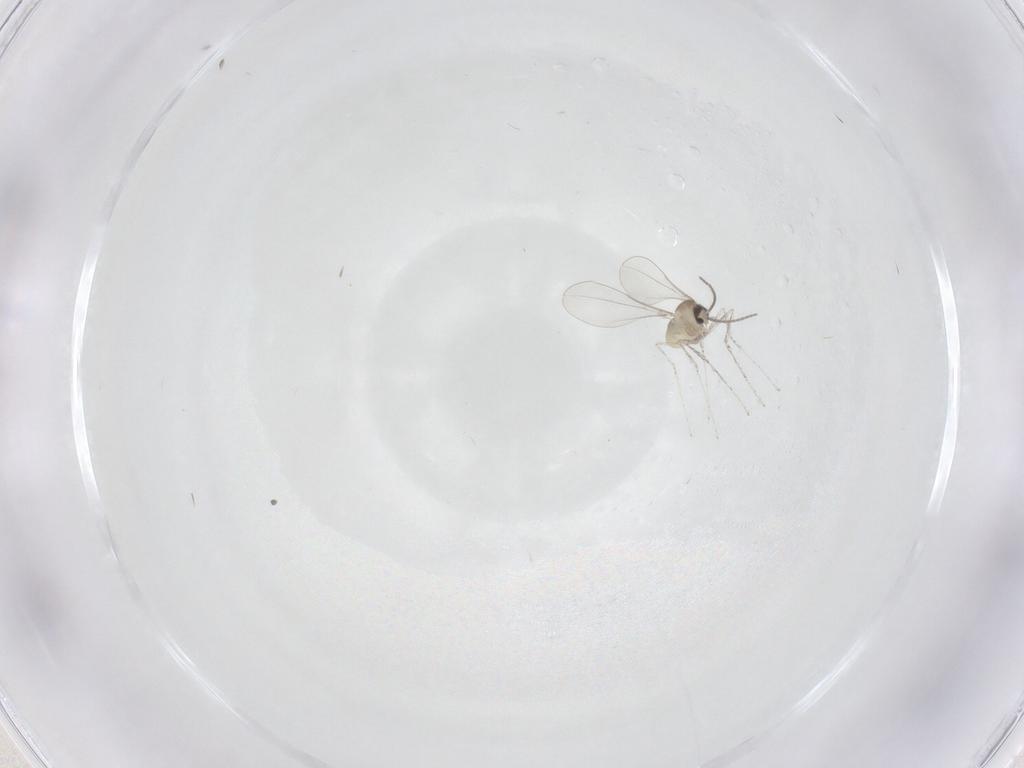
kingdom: Animalia
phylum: Arthropoda
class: Insecta
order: Diptera
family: Cecidomyiidae
